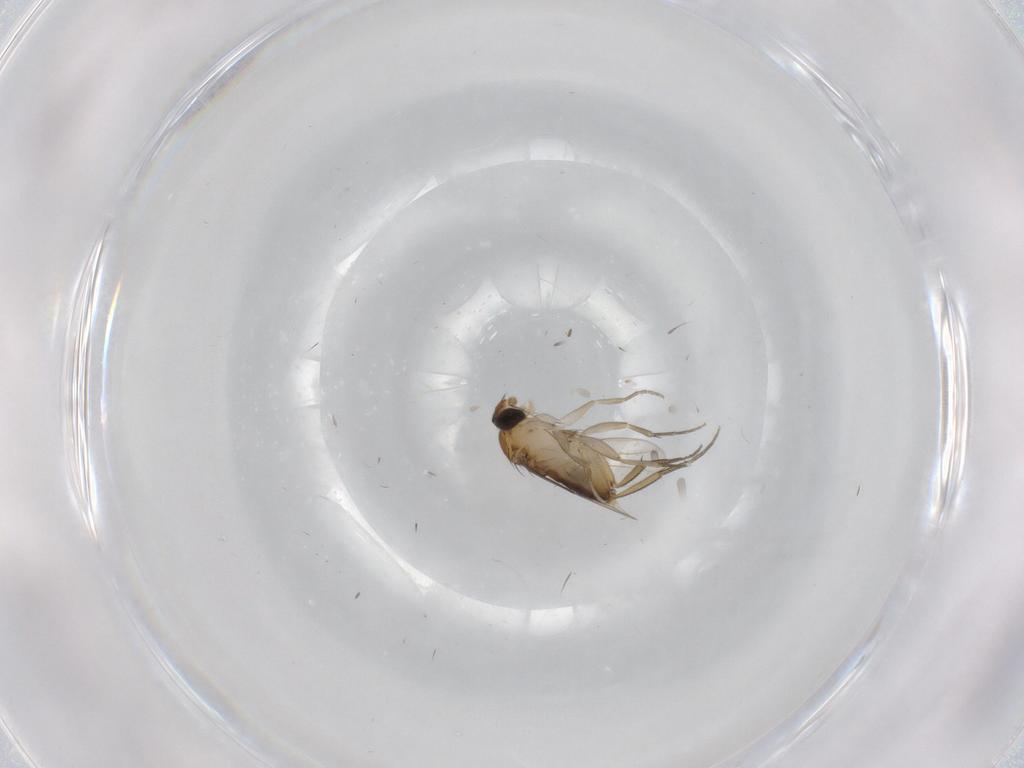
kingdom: Animalia
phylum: Arthropoda
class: Insecta
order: Diptera
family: Phoridae
